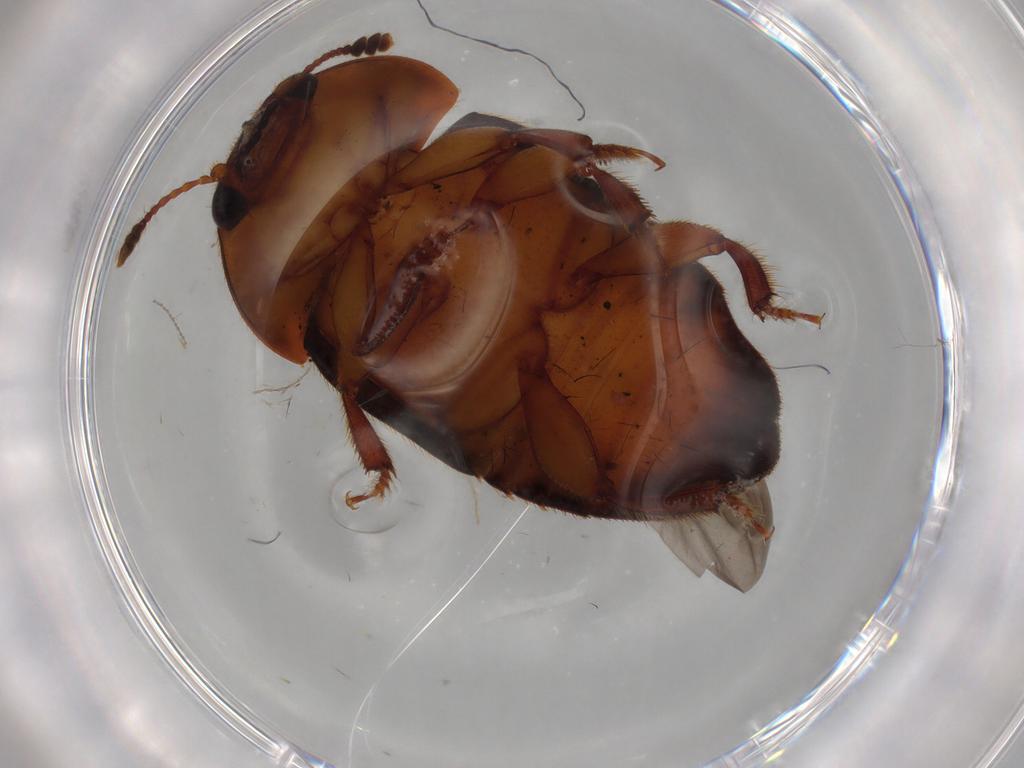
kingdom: Animalia
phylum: Arthropoda
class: Insecta
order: Coleoptera
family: Nitidulidae
